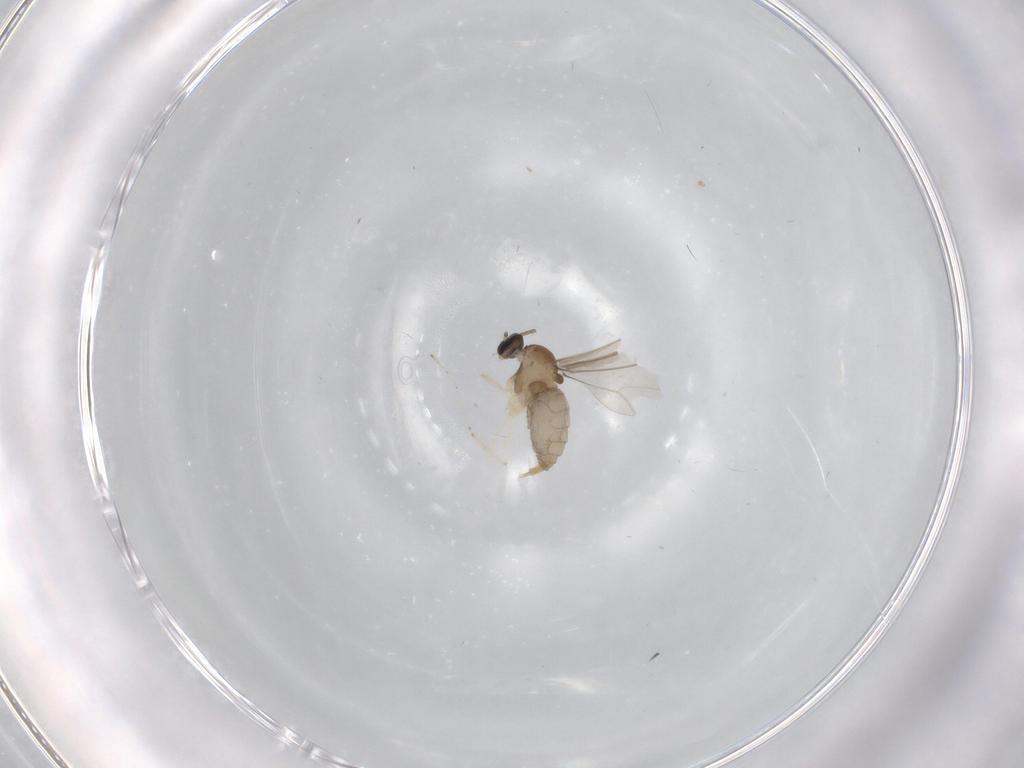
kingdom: Animalia
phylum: Arthropoda
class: Insecta
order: Diptera
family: Cecidomyiidae
